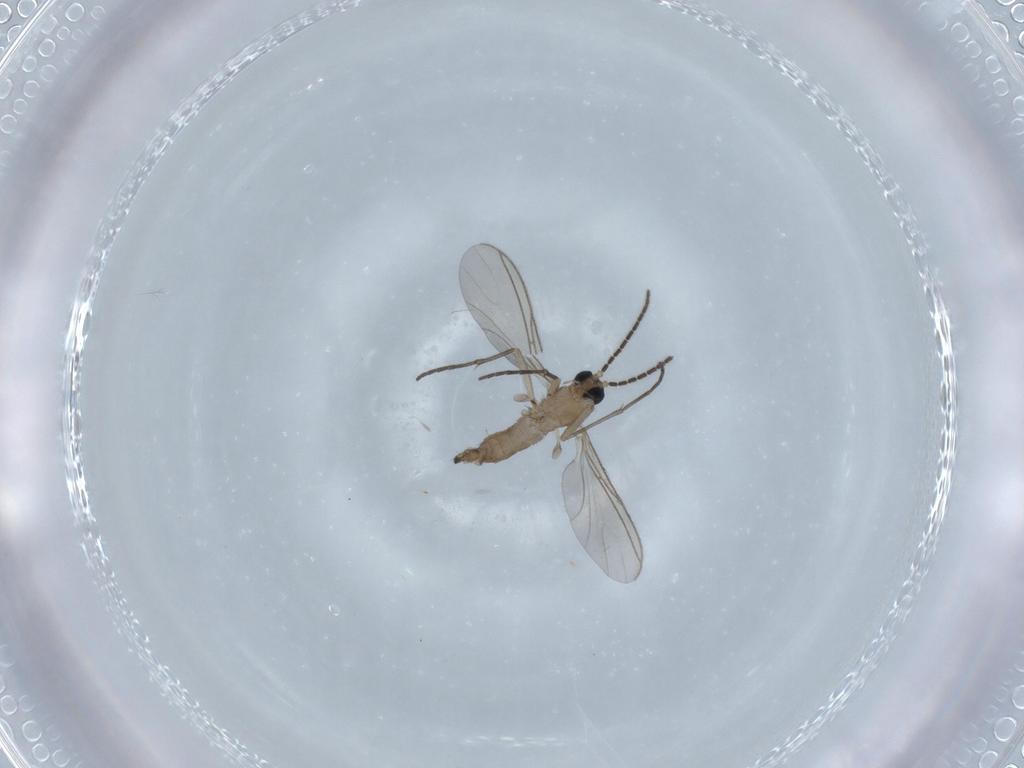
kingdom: Animalia
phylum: Arthropoda
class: Insecta
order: Diptera
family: Sciaridae
